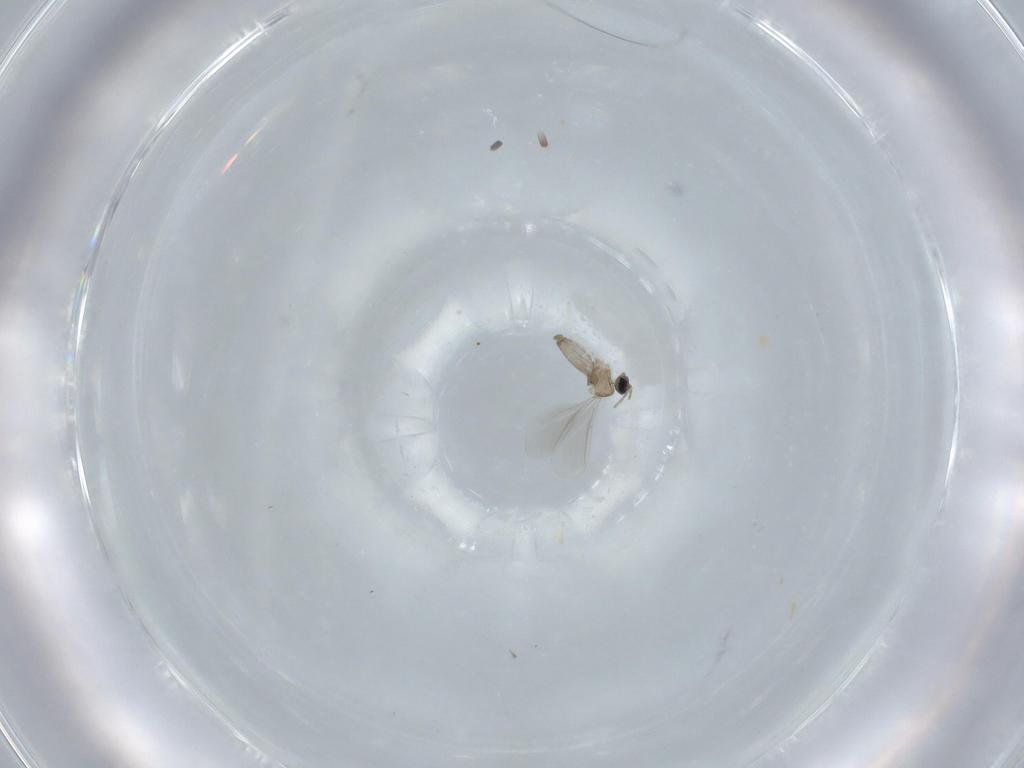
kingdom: Animalia
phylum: Arthropoda
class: Insecta
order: Diptera
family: Cecidomyiidae
